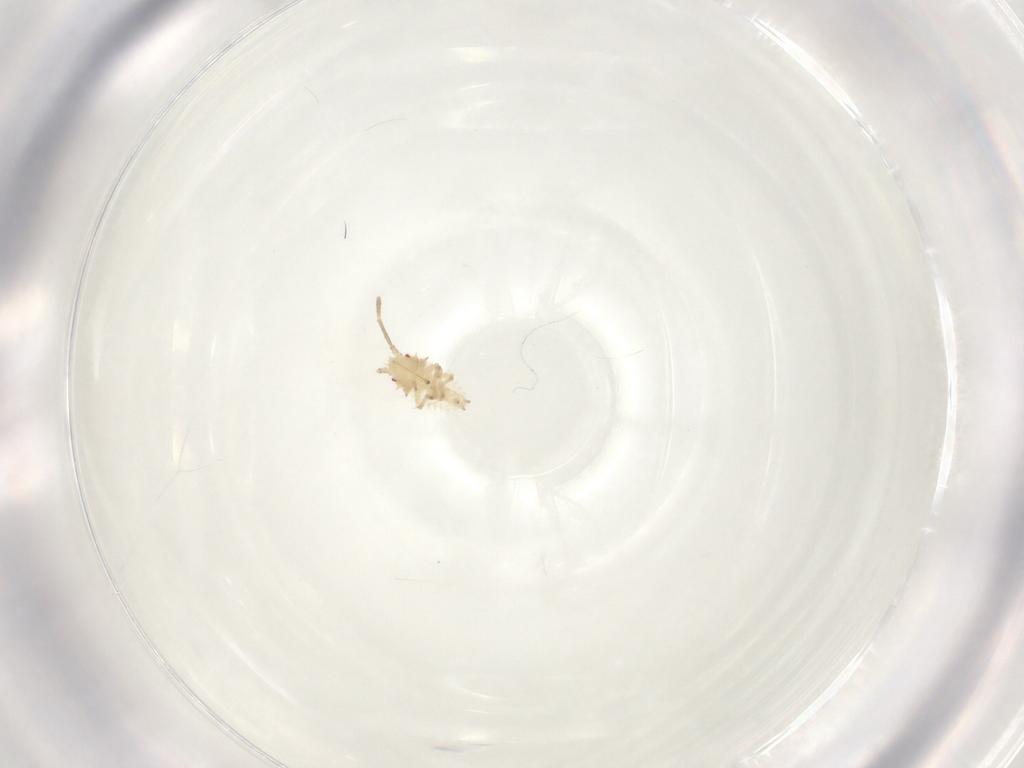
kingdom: Animalia
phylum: Arthropoda
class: Insecta
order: Hemiptera
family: Tingidae
